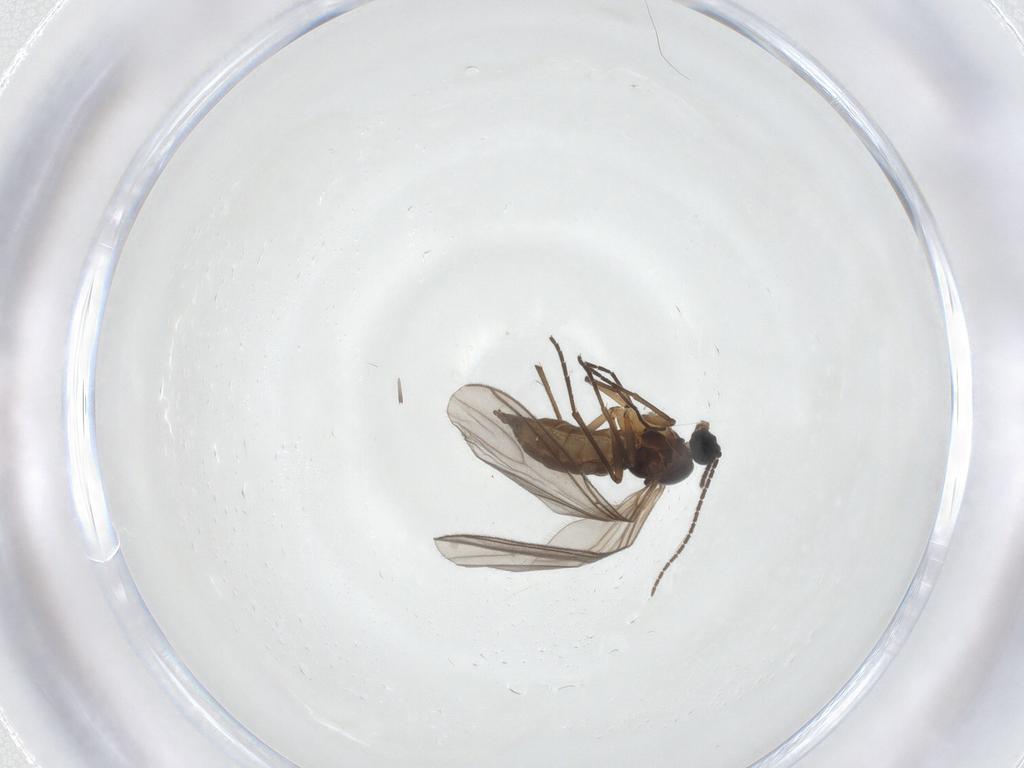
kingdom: Animalia
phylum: Arthropoda
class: Insecta
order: Diptera
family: Sciaridae
